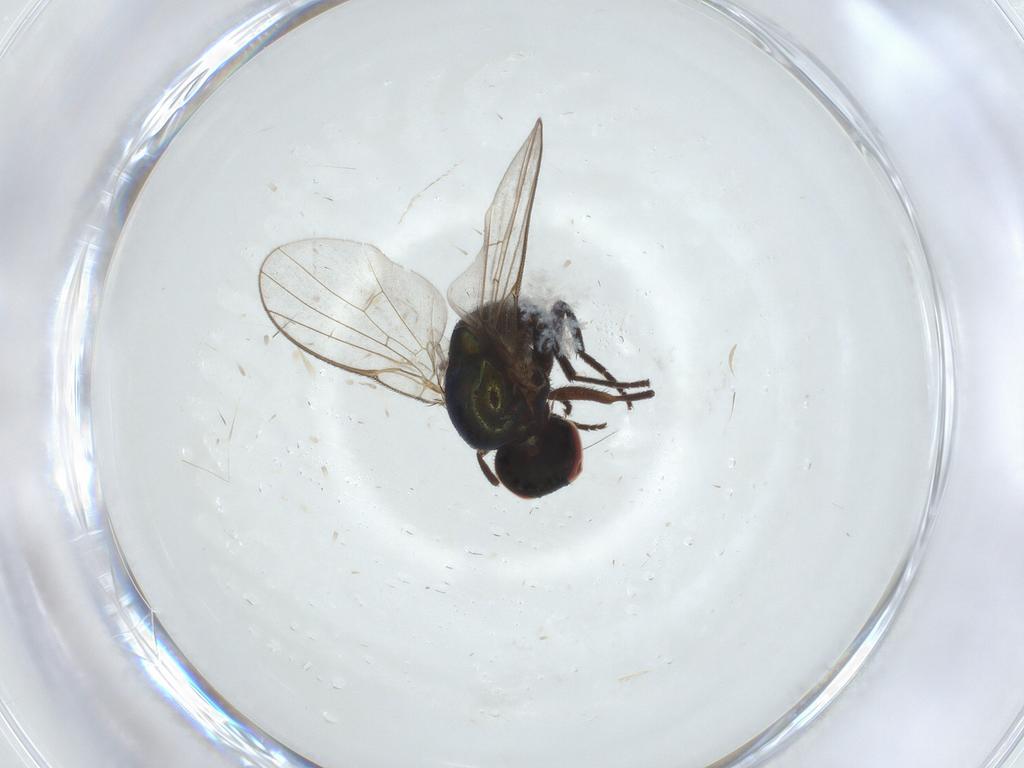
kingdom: Animalia
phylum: Arthropoda
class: Insecta
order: Diptera
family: Agromyzidae
